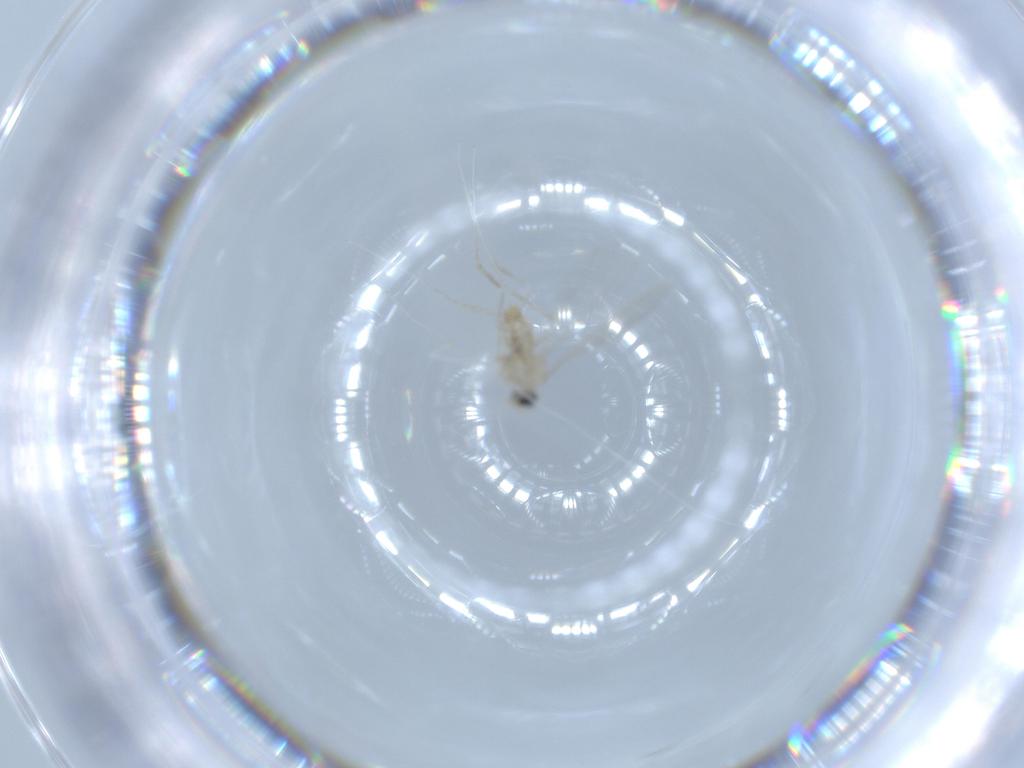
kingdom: Animalia
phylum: Arthropoda
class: Insecta
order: Diptera
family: Cecidomyiidae
